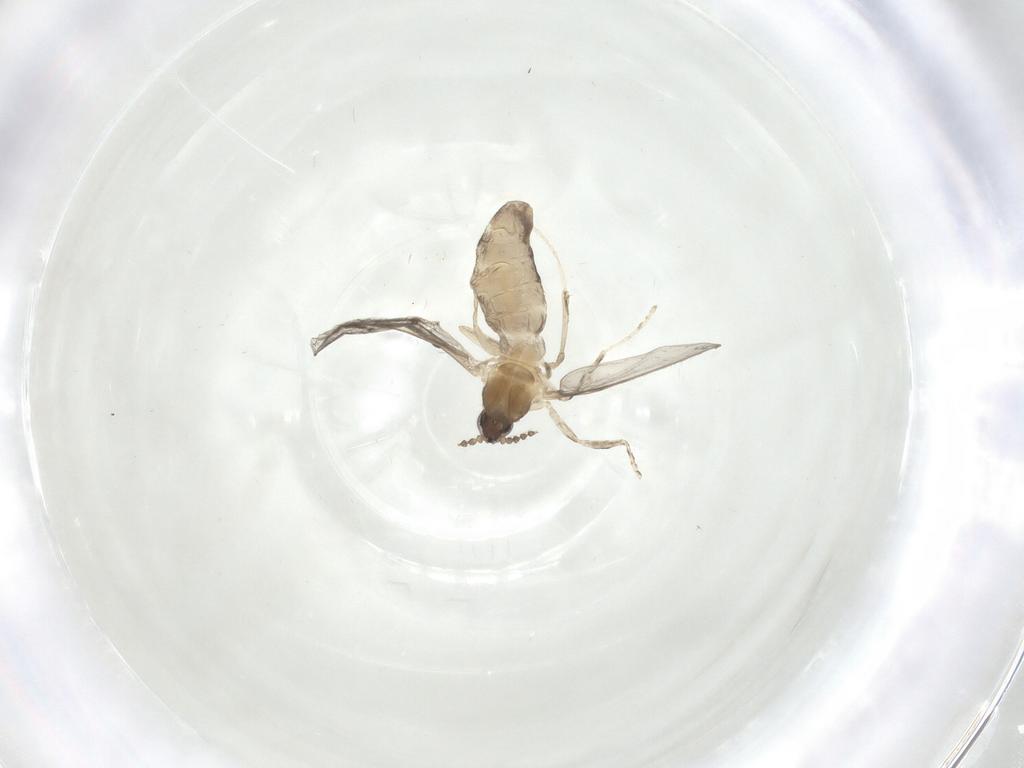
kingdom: Animalia
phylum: Arthropoda
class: Insecta
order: Diptera
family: Cecidomyiidae
